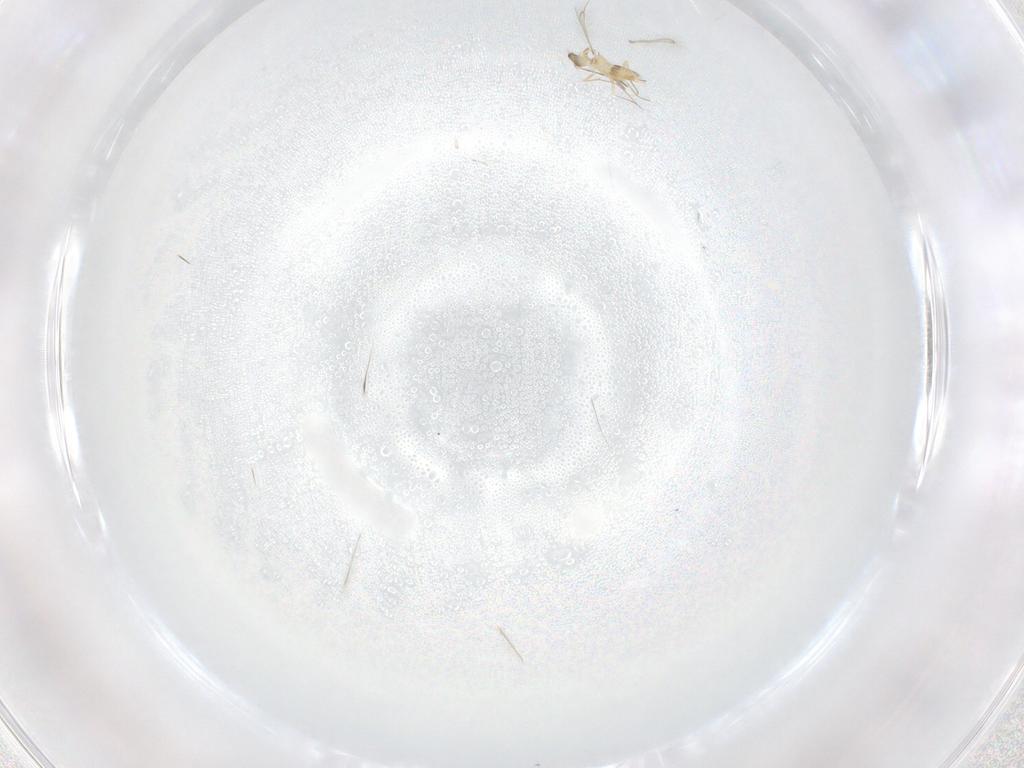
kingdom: Animalia
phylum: Arthropoda
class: Insecta
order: Hymenoptera
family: Mymaridae
